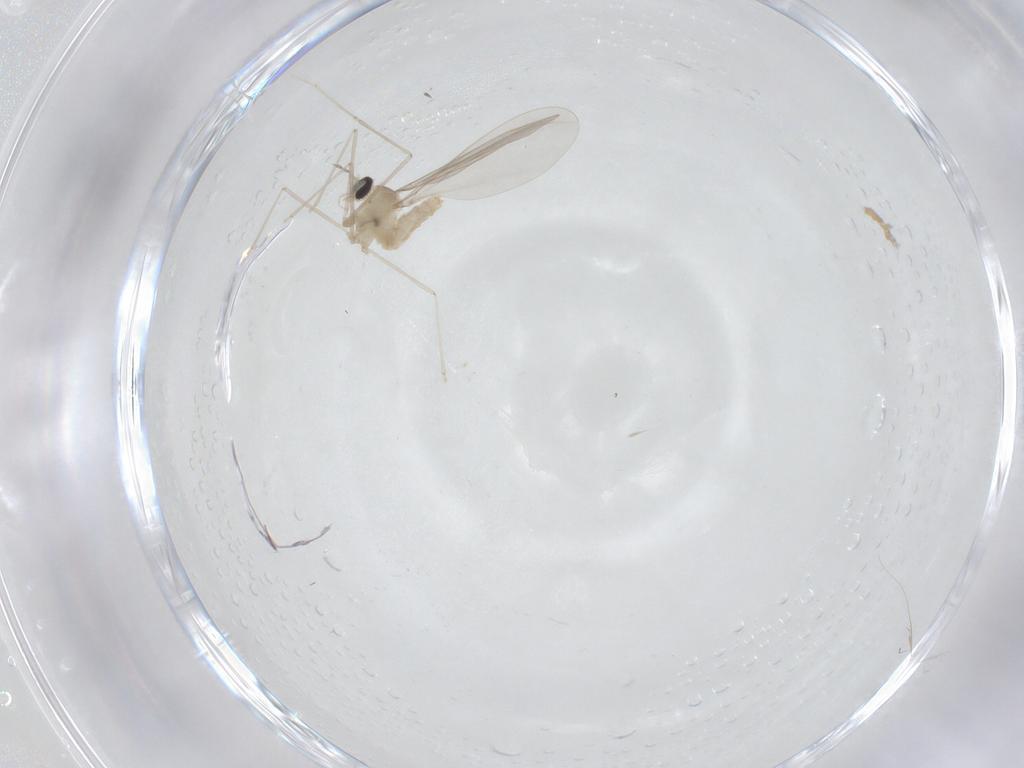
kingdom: Animalia
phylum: Arthropoda
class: Insecta
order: Diptera
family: Cecidomyiidae
